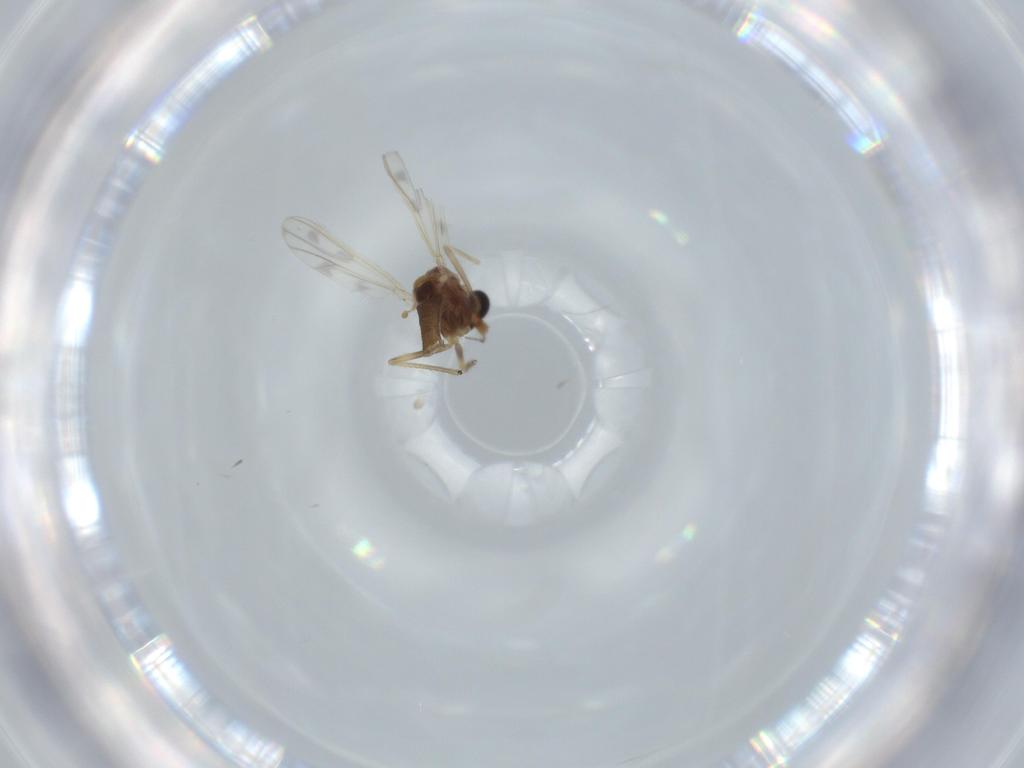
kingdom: Animalia
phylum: Arthropoda
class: Insecta
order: Diptera
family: Chironomidae
